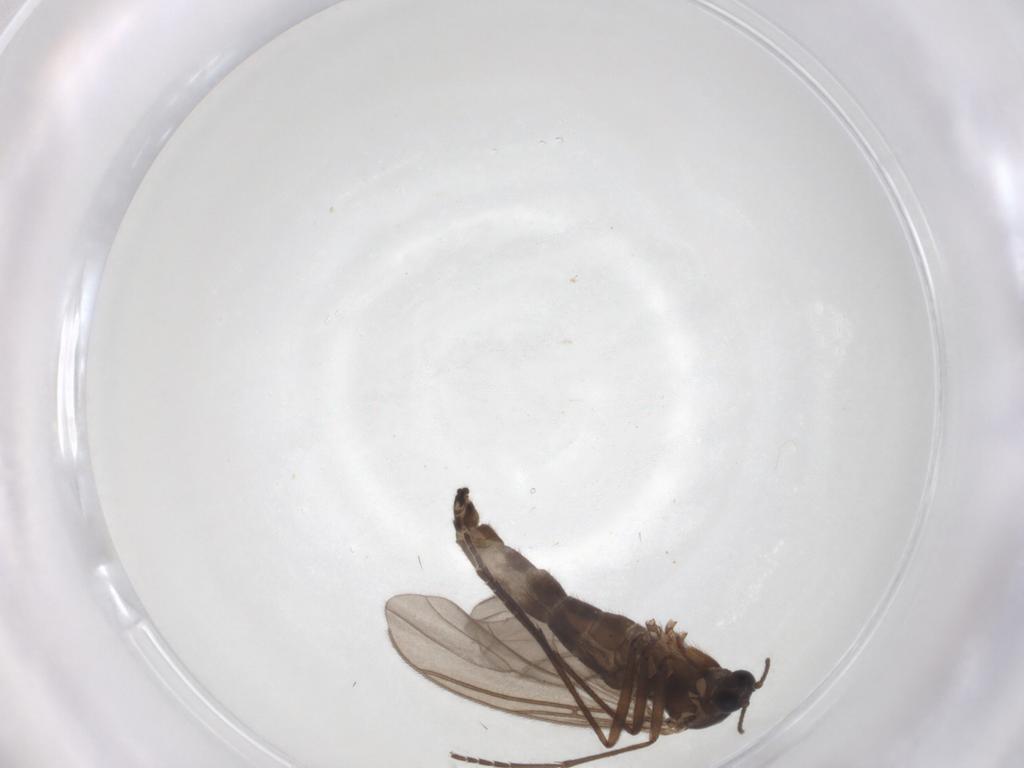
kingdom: Animalia
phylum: Arthropoda
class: Insecta
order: Diptera
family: Sciaridae
